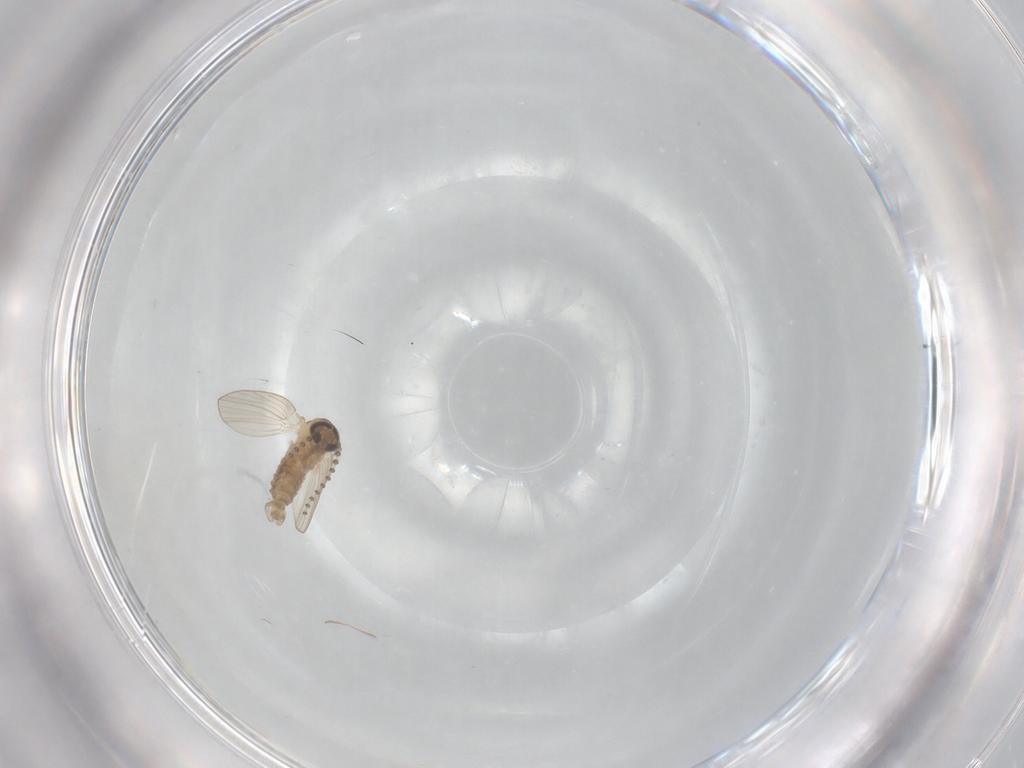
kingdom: Animalia
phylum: Arthropoda
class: Insecta
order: Diptera
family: Psychodidae
